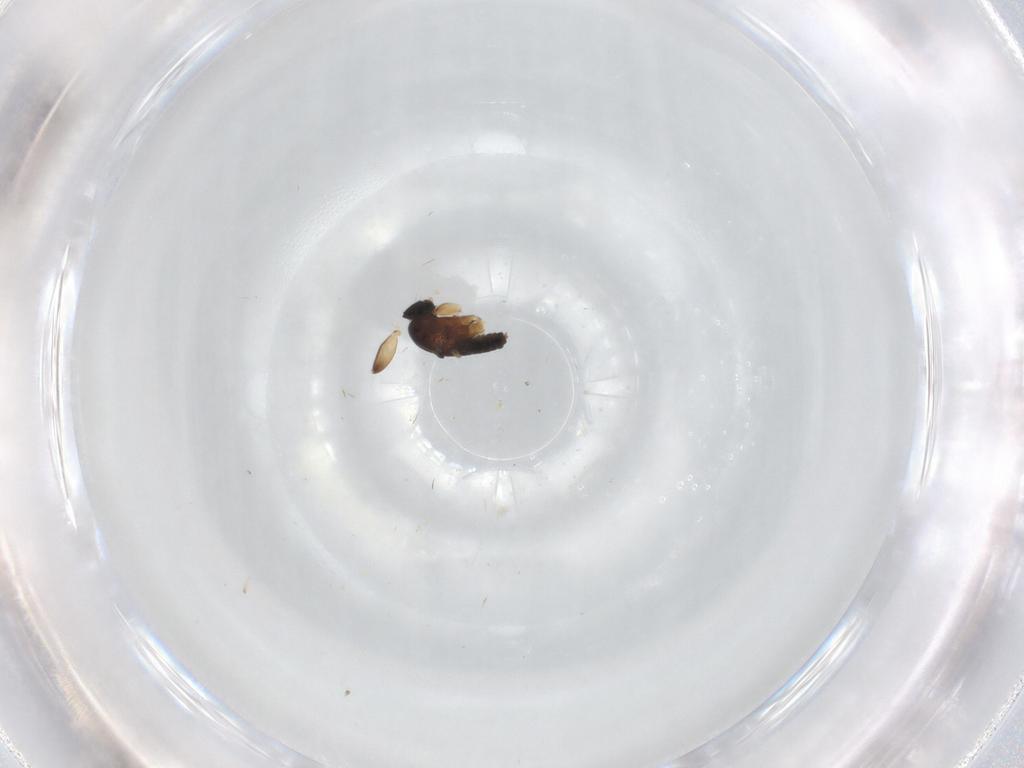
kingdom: Animalia
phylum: Arthropoda
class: Insecta
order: Diptera
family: Phoridae
